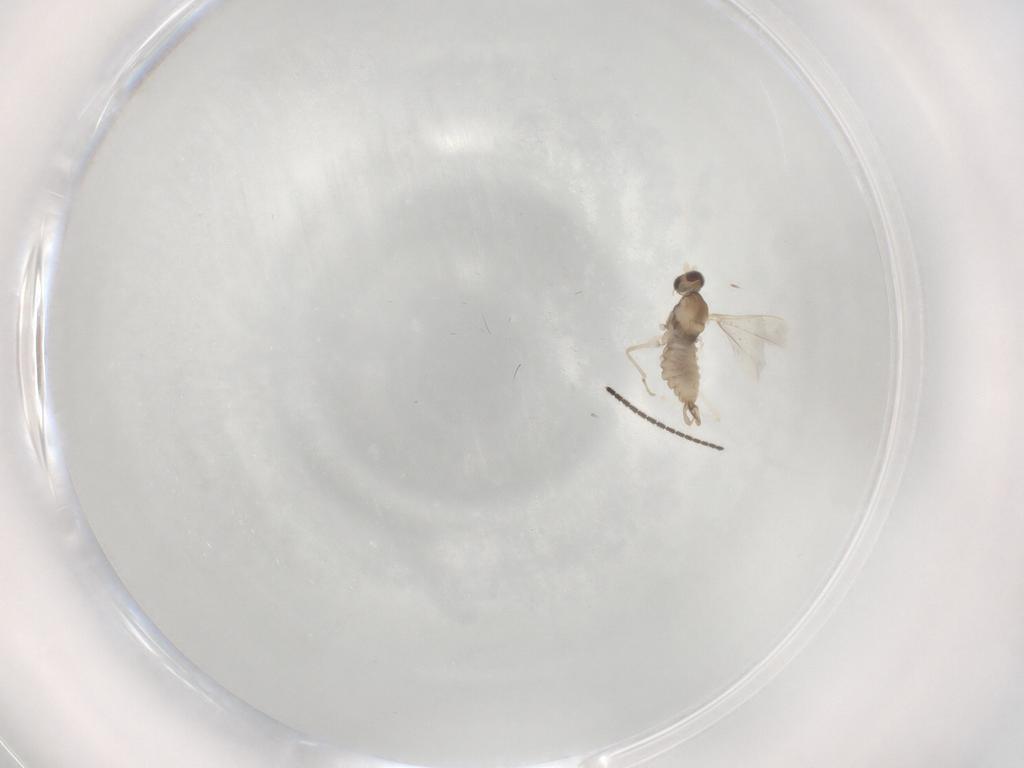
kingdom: Animalia
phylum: Arthropoda
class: Insecta
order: Diptera
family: Cecidomyiidae
